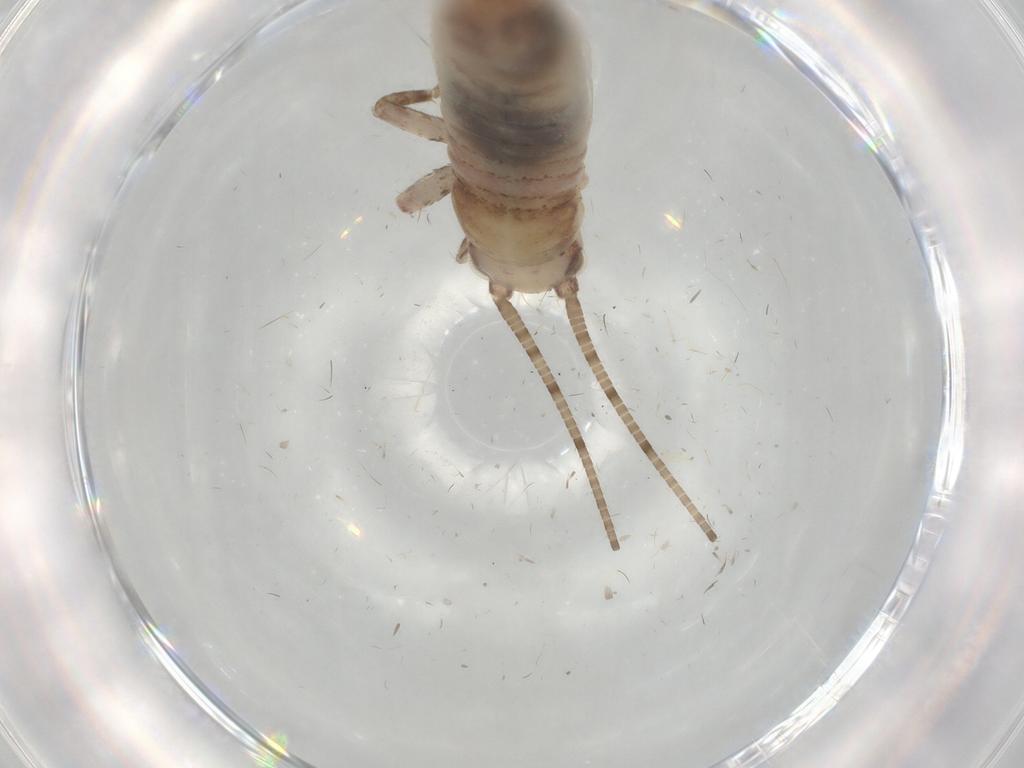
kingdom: Animalia
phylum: Arthropoda
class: Insecta
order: Orthoptera
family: Mogoplistidae
